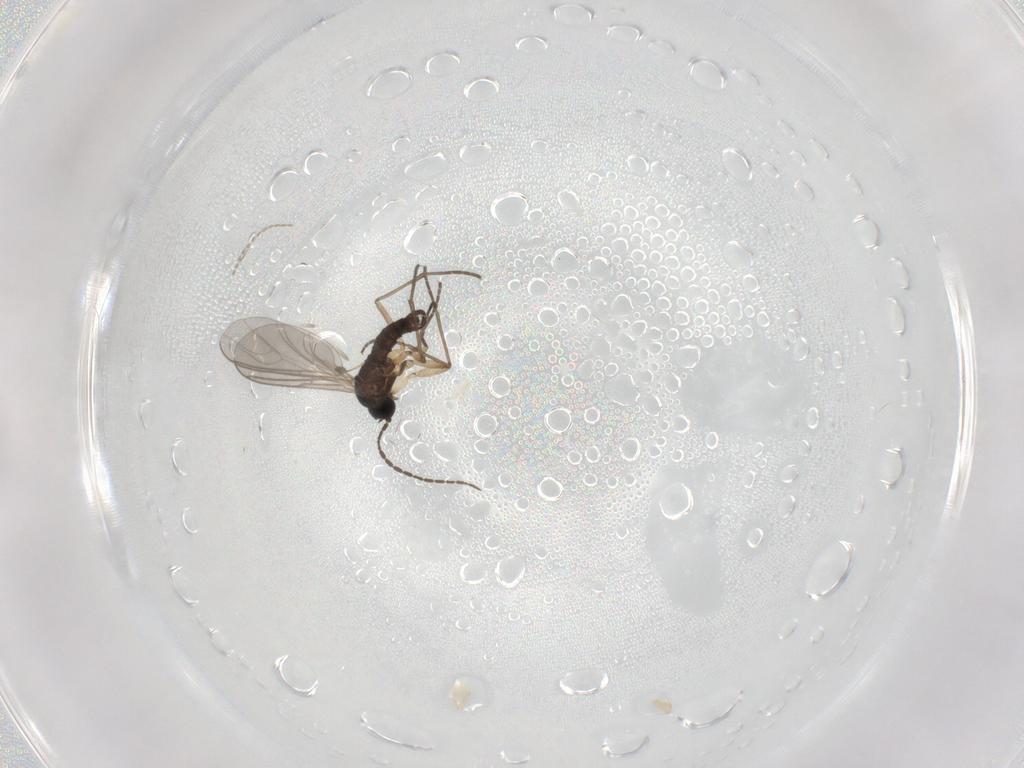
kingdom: Animalia
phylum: Arthropoda
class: Insecta
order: Diptera
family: Sciaridae
